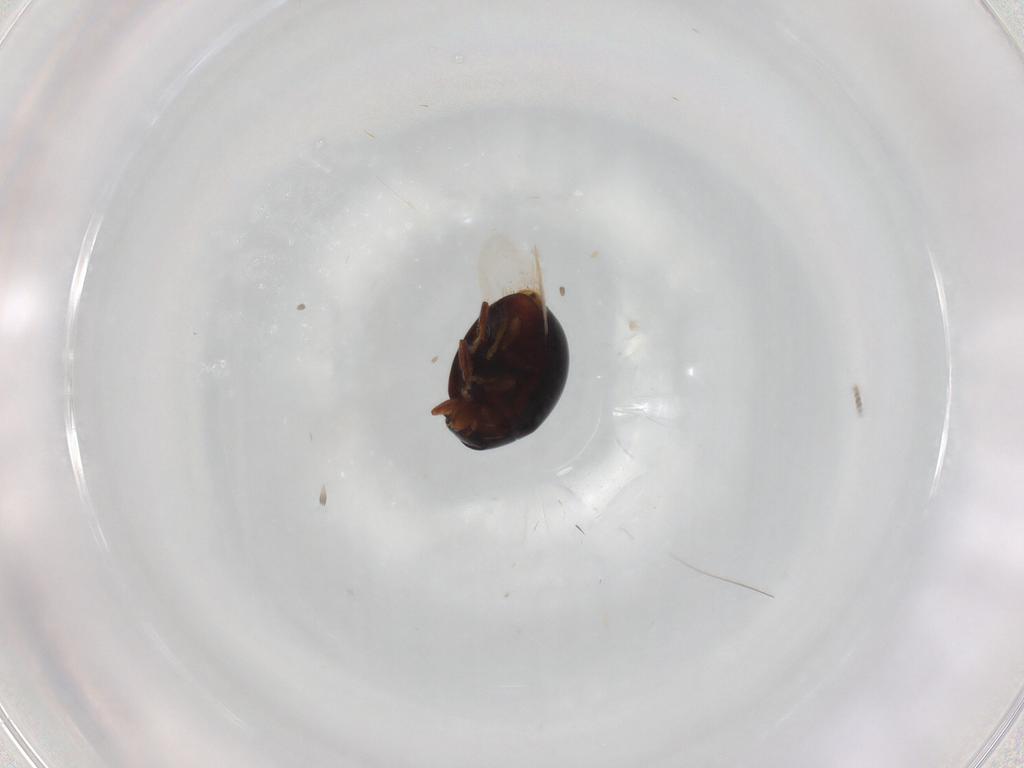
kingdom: Animalia
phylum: Arthropoda
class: Insecta
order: Coleoptera
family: Coccinellidae
